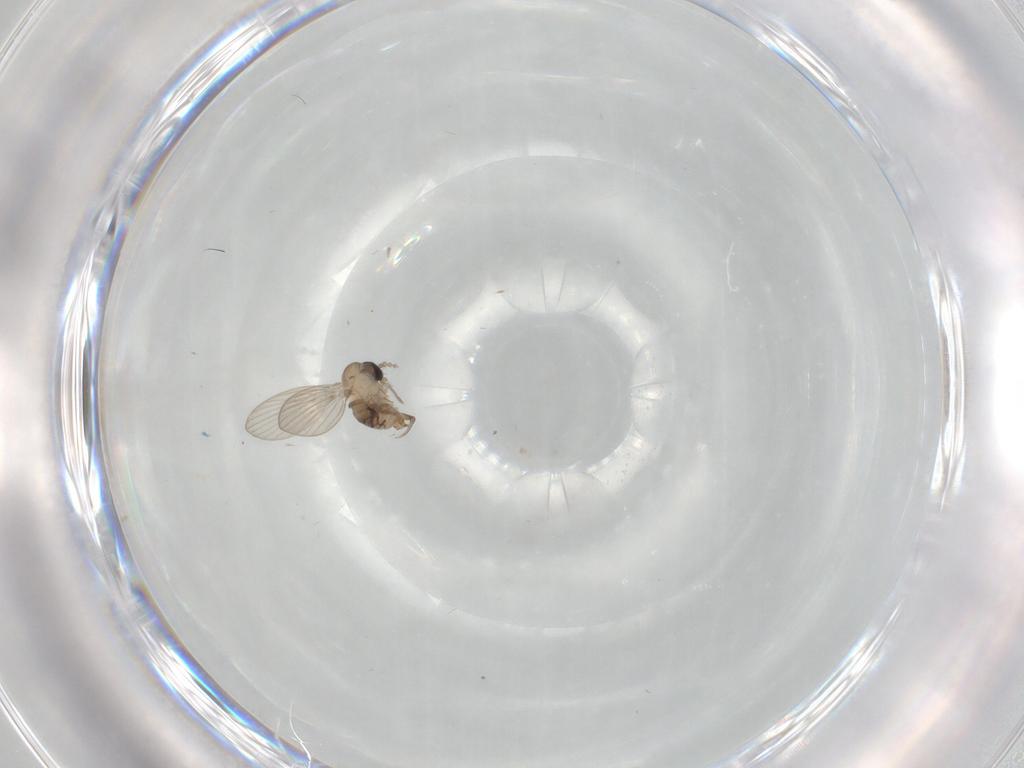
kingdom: Animalia
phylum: Arthropoda
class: Insecta
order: Diptera
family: Psychodidae
